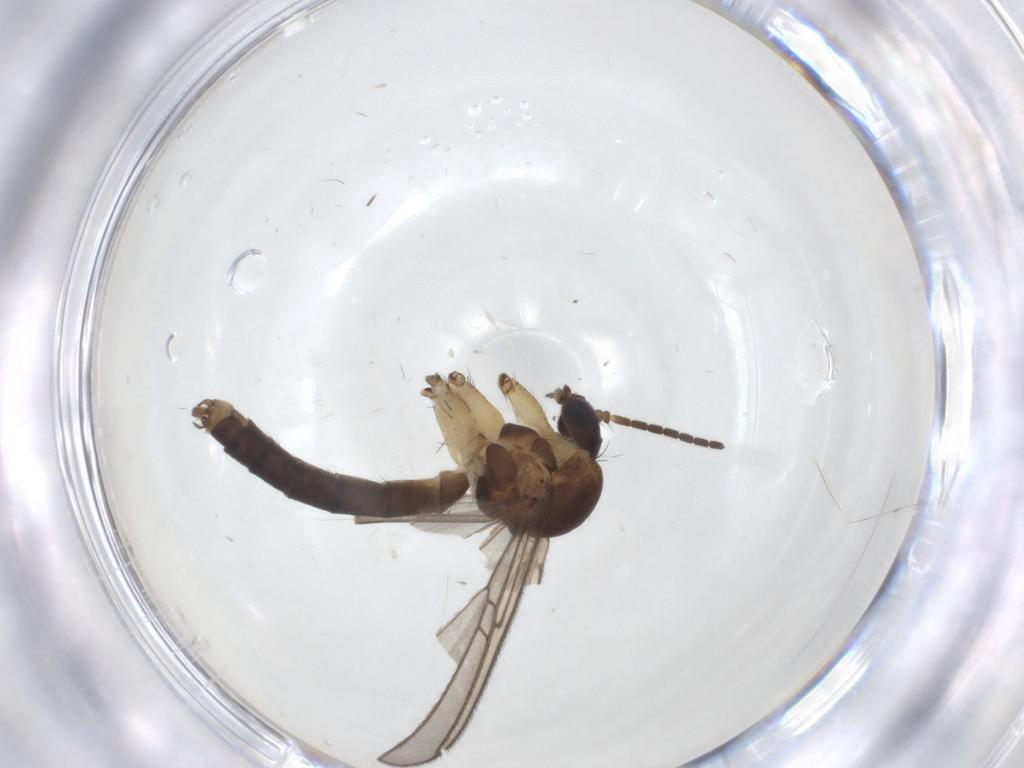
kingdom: Animalia
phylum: Arthropoda
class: Insecta
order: Diptera
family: Mycetophilidae
